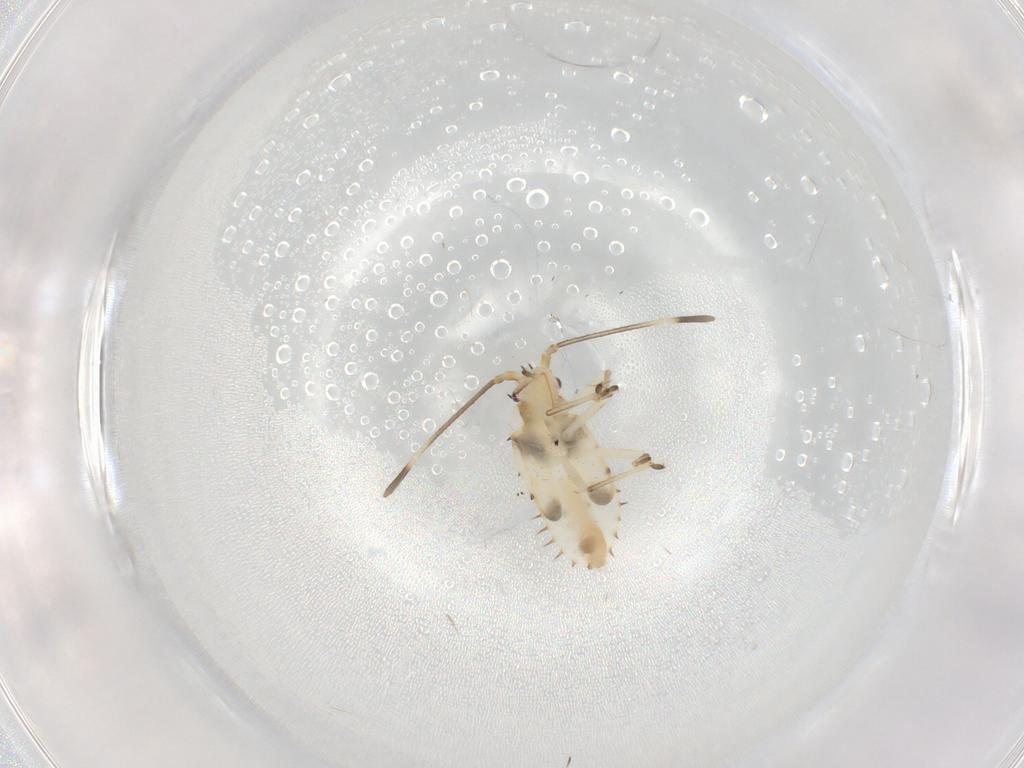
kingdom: Animalia
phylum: Arthropoda
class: Insecta
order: Hemiptera
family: Tingidae
